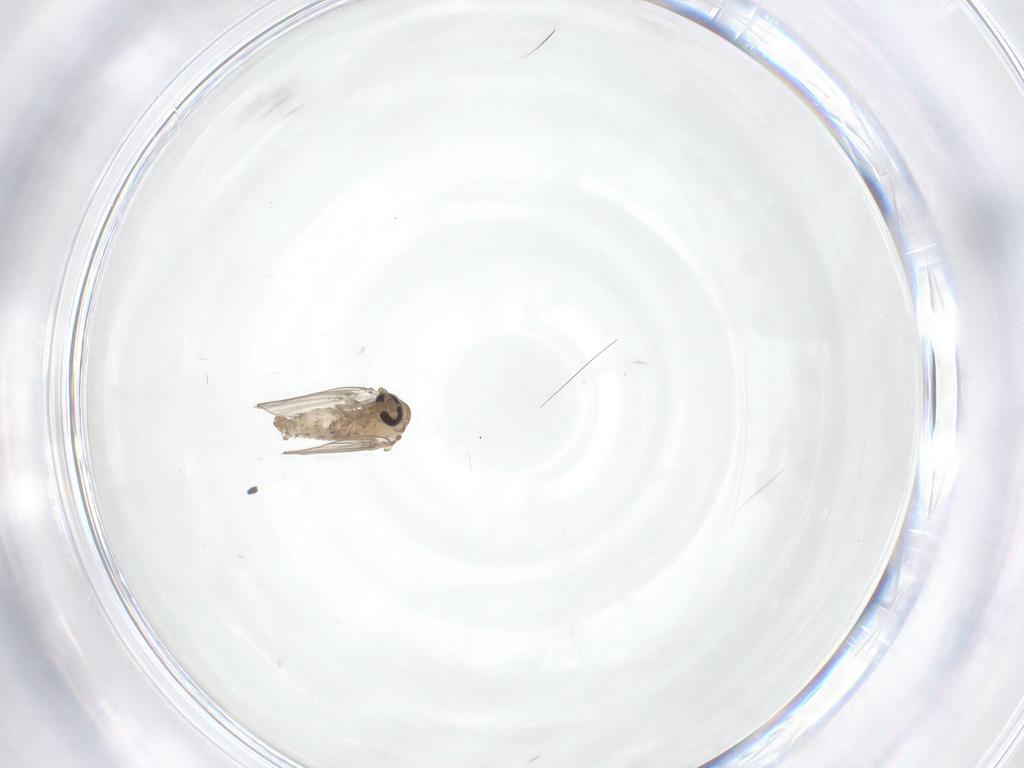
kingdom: Animalia
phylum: Arthropoda
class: Insecta
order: Diptera
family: Psychodidae
